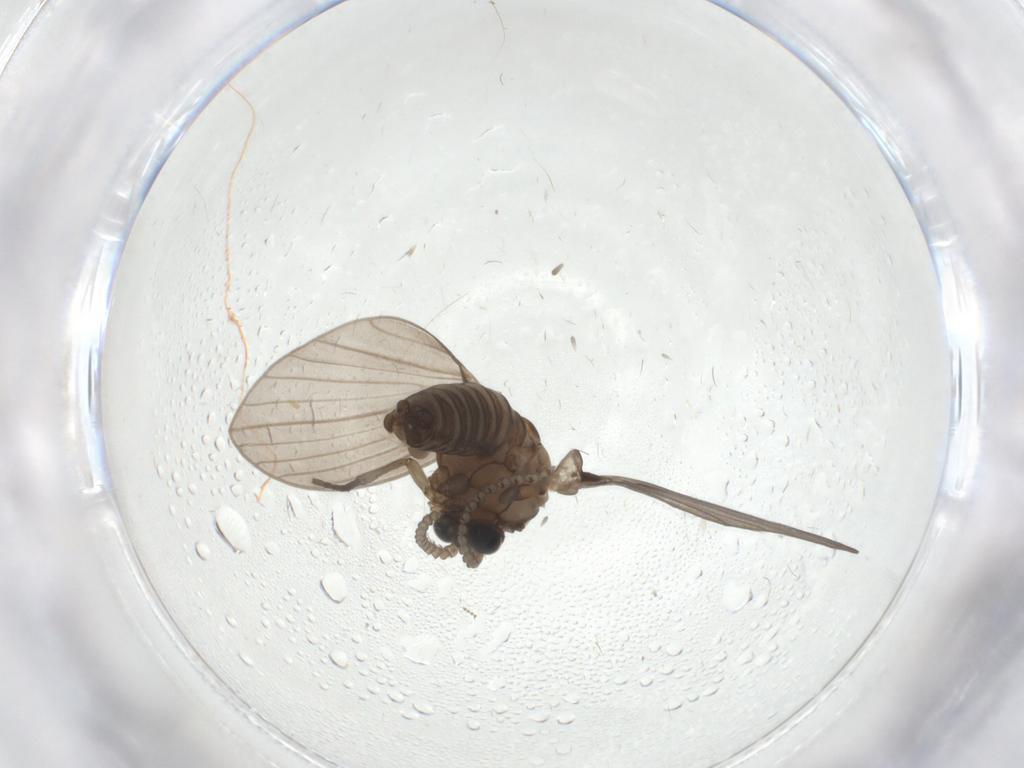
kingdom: Animalia
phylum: Arthropoda
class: Insecta
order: Diptera
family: Psychodidae
